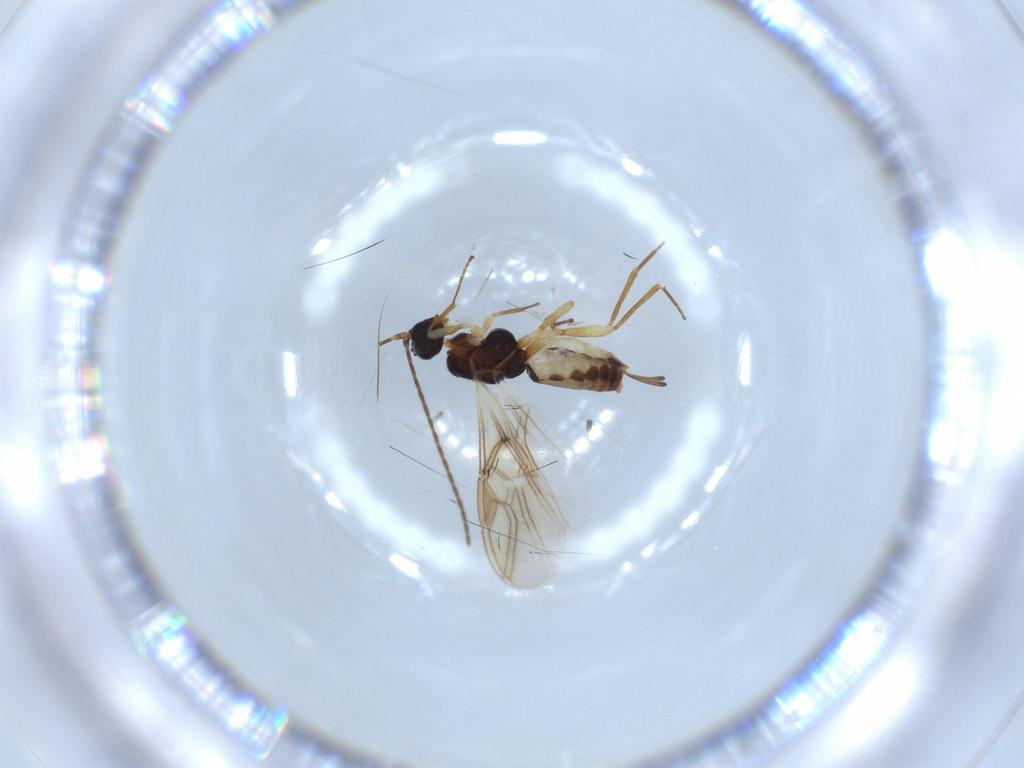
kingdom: Animalia
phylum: Arthropoda
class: Insecta
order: Hymenoptera
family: Braconidae
